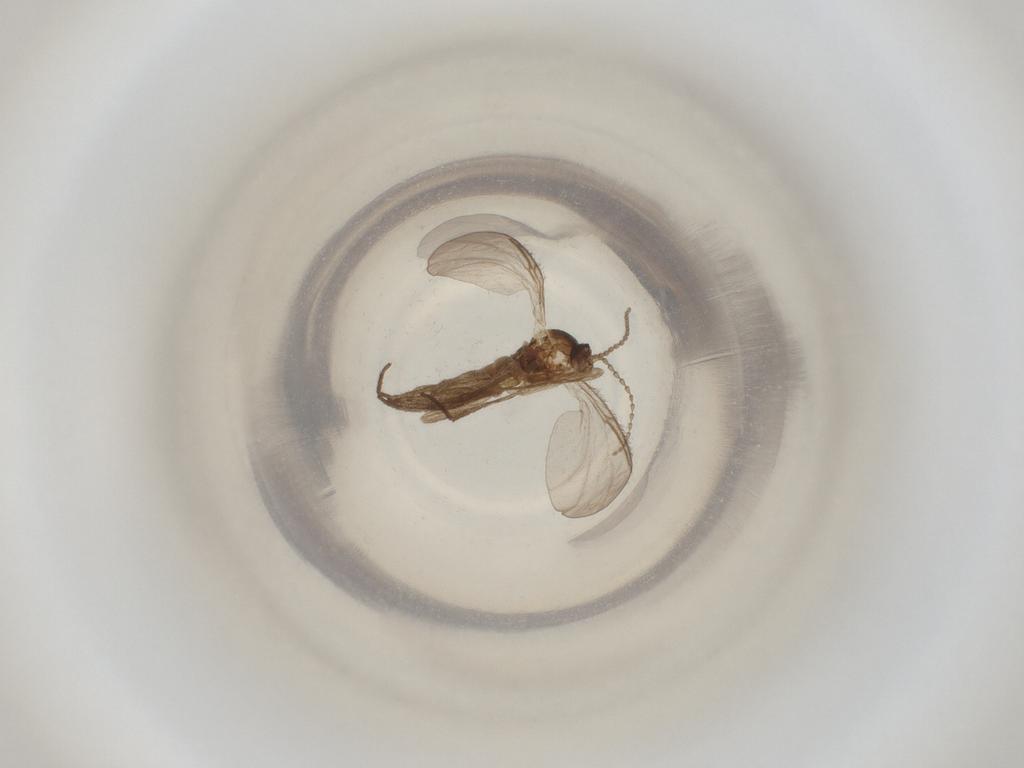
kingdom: Animalia
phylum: Arthropoda
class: Insecta
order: Diptera
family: Cecidomyiidae
